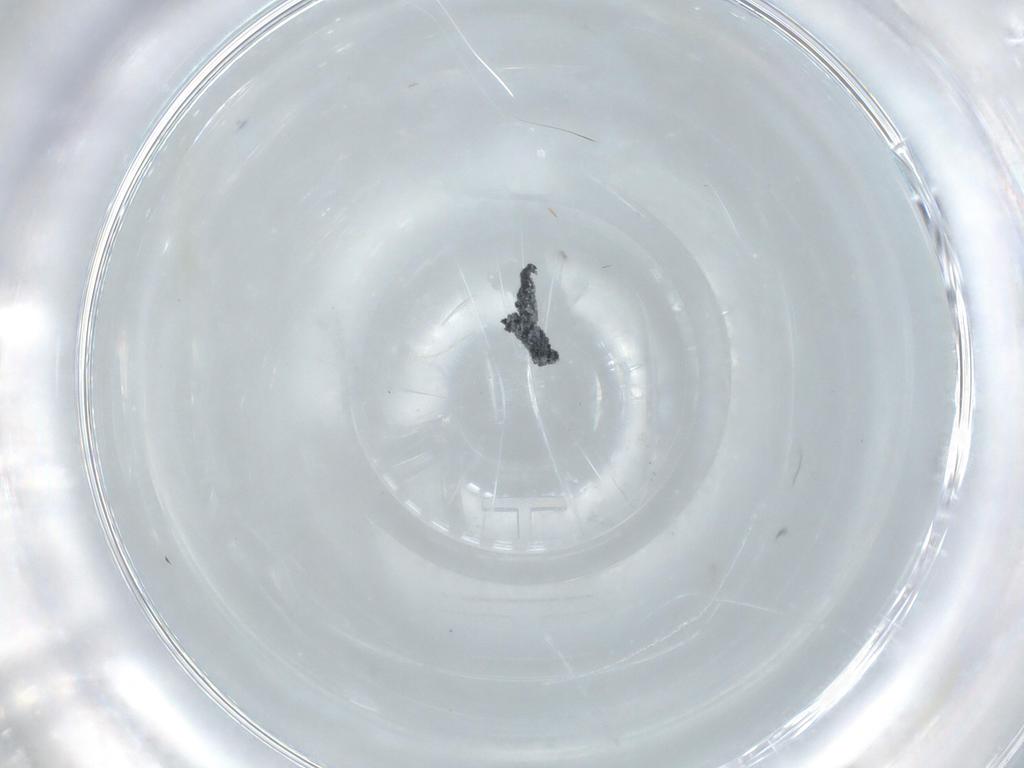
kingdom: Animalia
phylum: Arthropoda
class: Insecta
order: Diptera
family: Chironomidae
